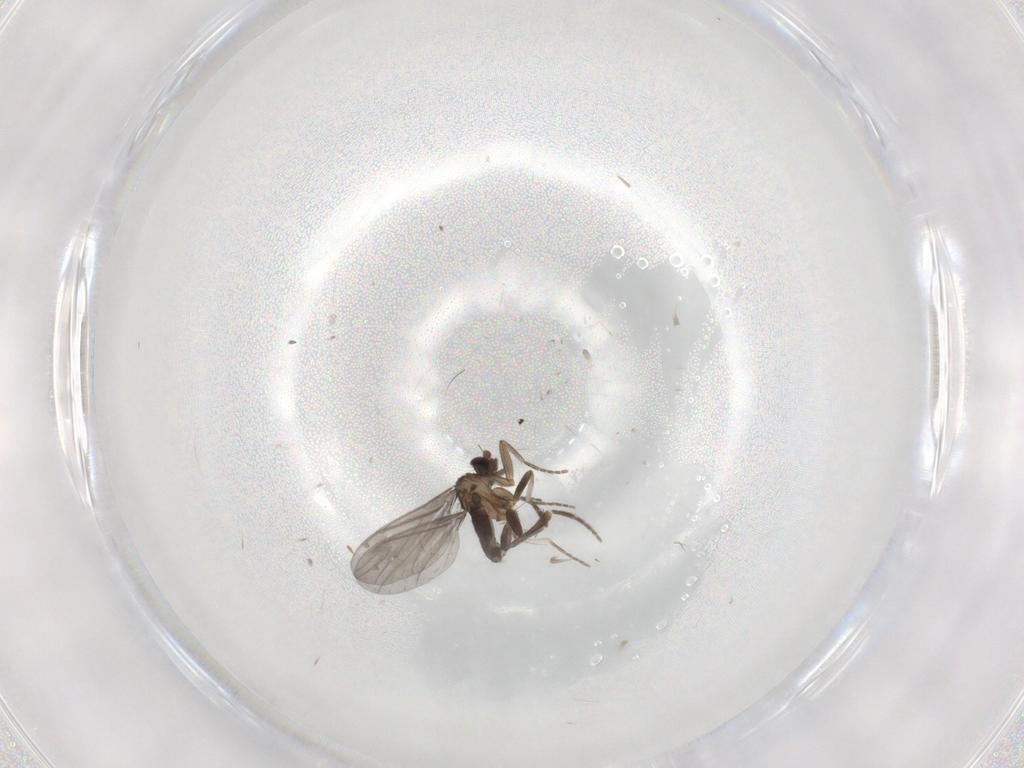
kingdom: Animalia
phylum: Arthropoda
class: Insecta
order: Diptera
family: Phoridae
